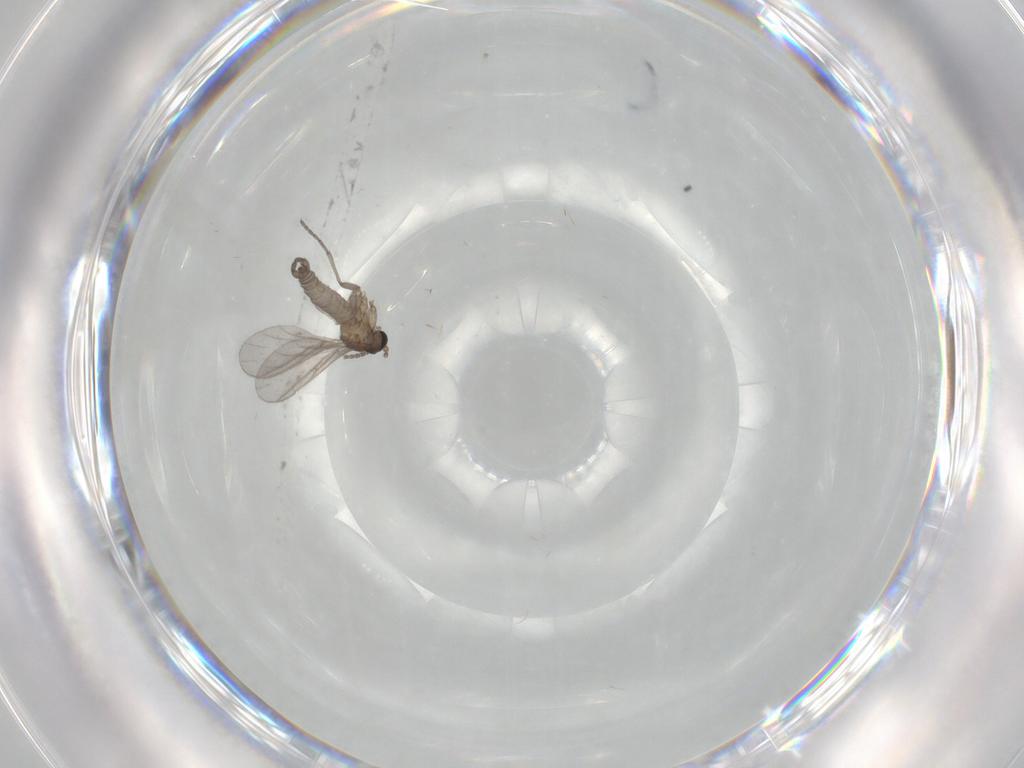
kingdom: Animalia
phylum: Arthropoda
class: Insecta
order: Diptera
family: Sciaridae
